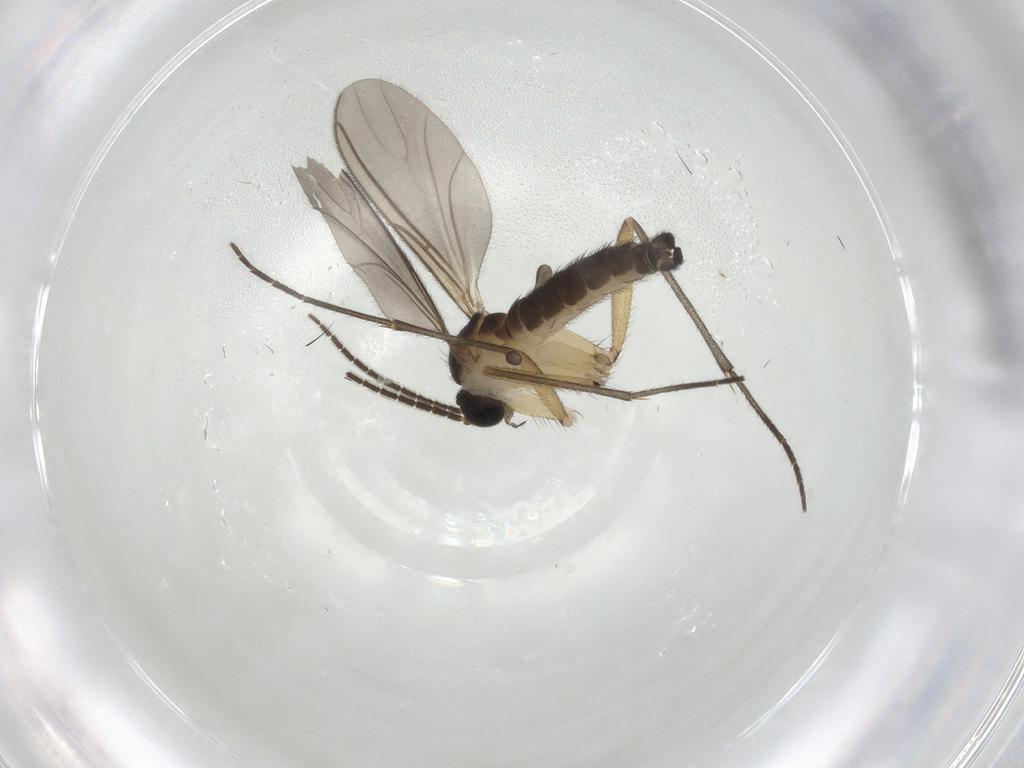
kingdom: Animalia
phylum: Arthropoda
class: Insecta
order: Diptera
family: Sciaridae
